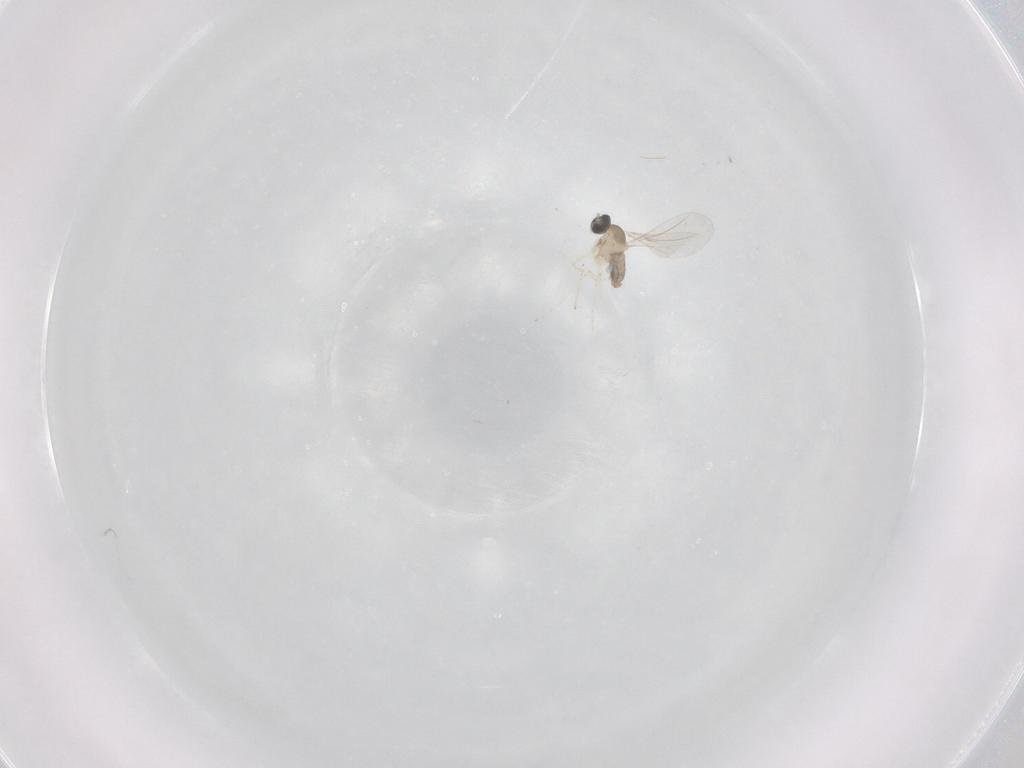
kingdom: Animalia
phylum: Arthropoda
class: Insecta
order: Diptera
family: Cecidomyiidae
